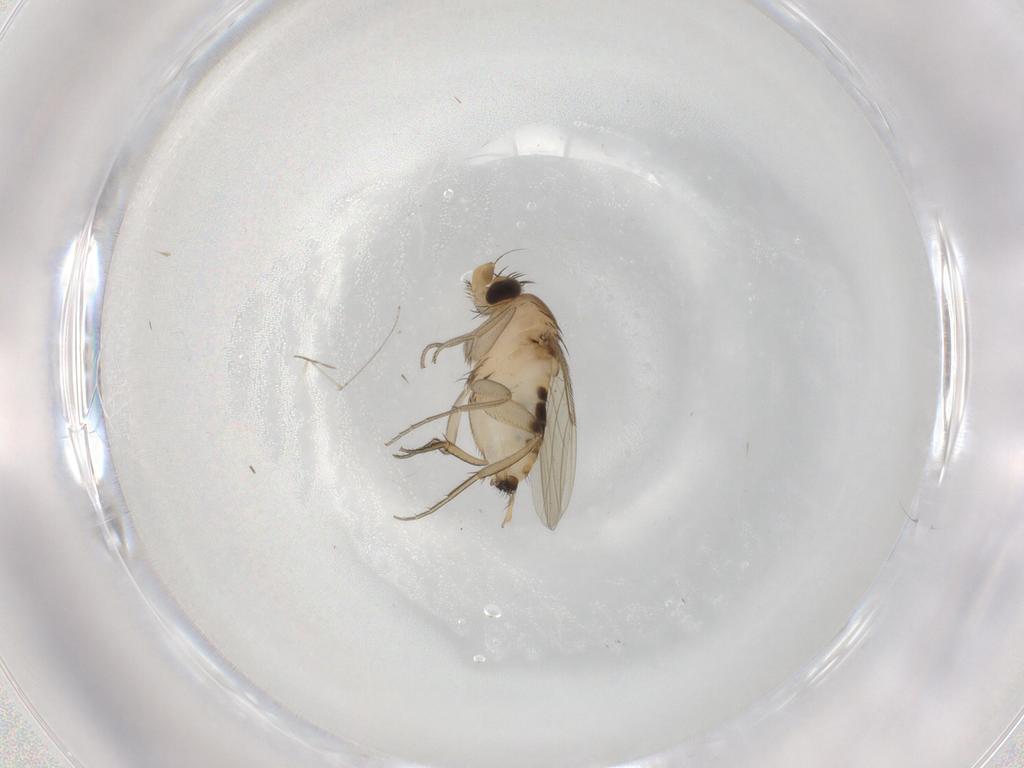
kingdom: Animalia
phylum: Arthropoda
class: Insecta
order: Diptera
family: Phoridae
